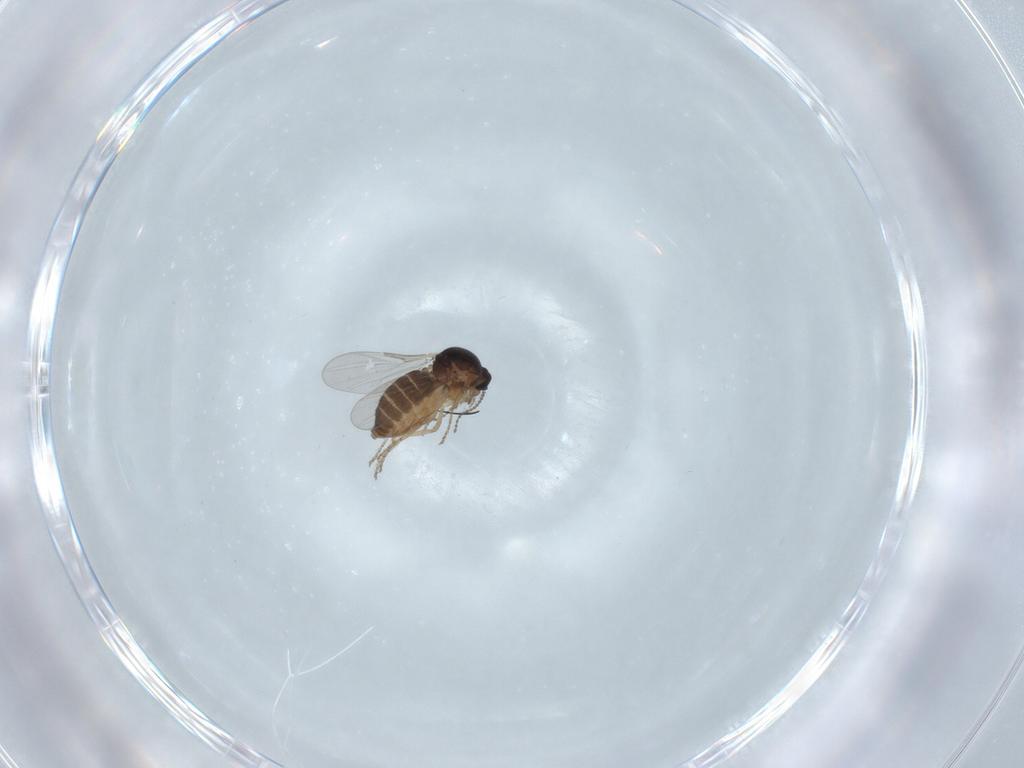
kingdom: Animalia
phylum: Arthropoda
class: Insecta
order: Diptera
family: Ceratopogonidae
